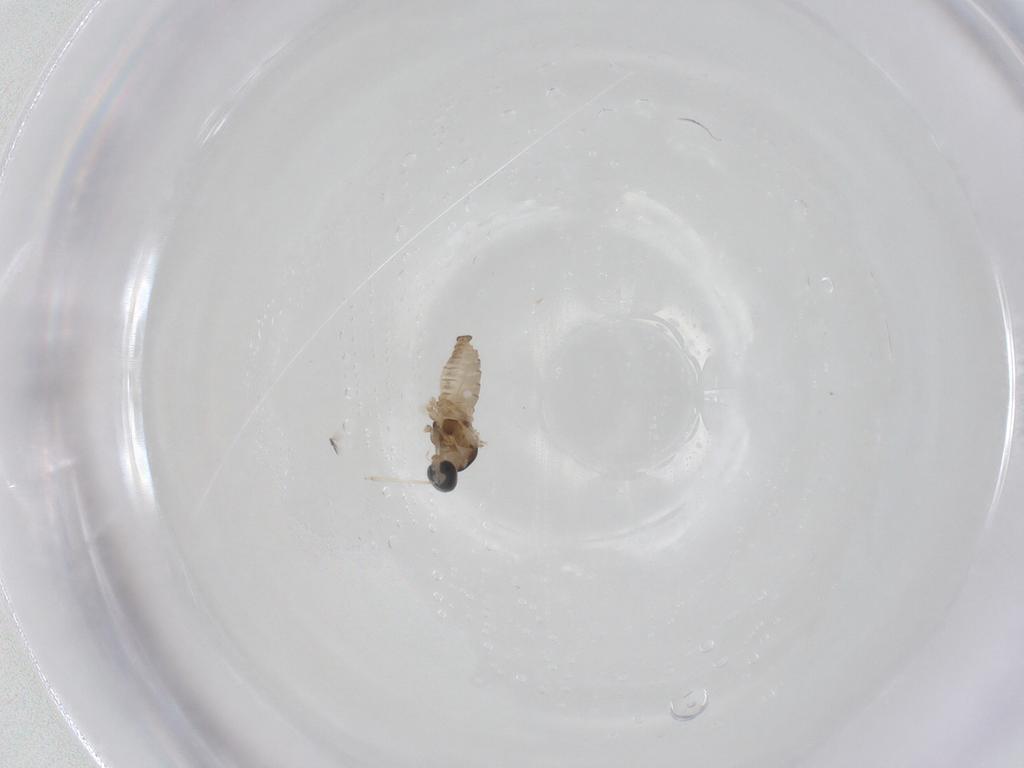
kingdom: Animalia
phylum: Arthropoda
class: Insecta
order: Diptera
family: Cecidomyiidae
